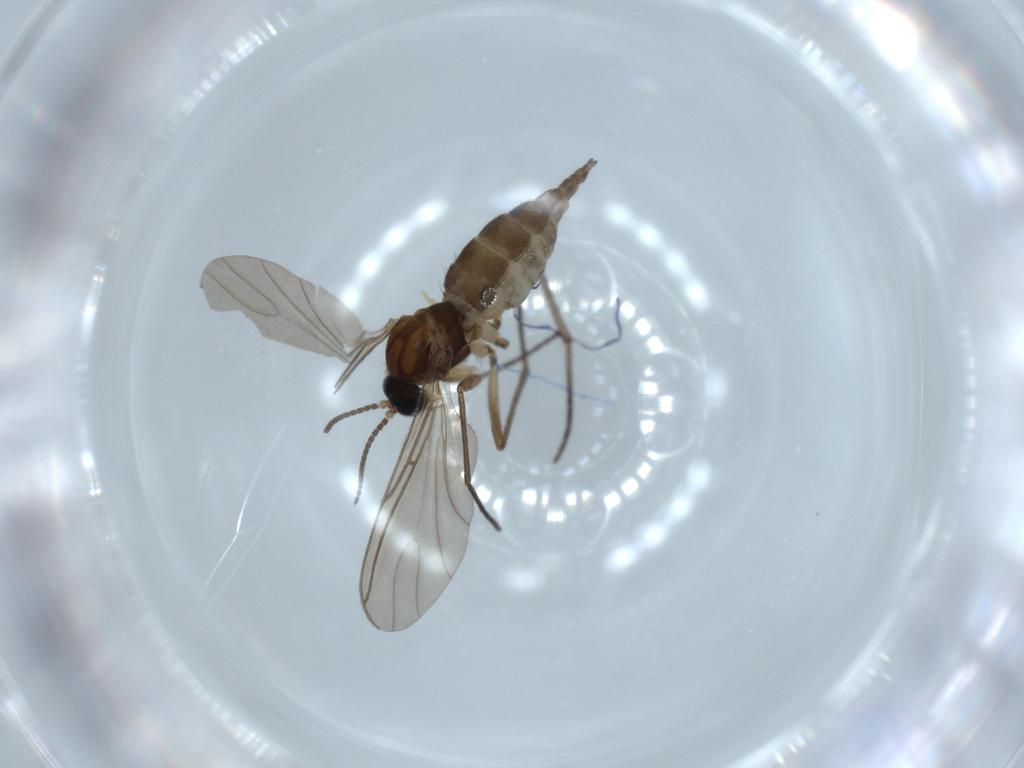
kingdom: Animalia
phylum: Arthropoda
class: Insecta
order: Diptera
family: Sciaridae
